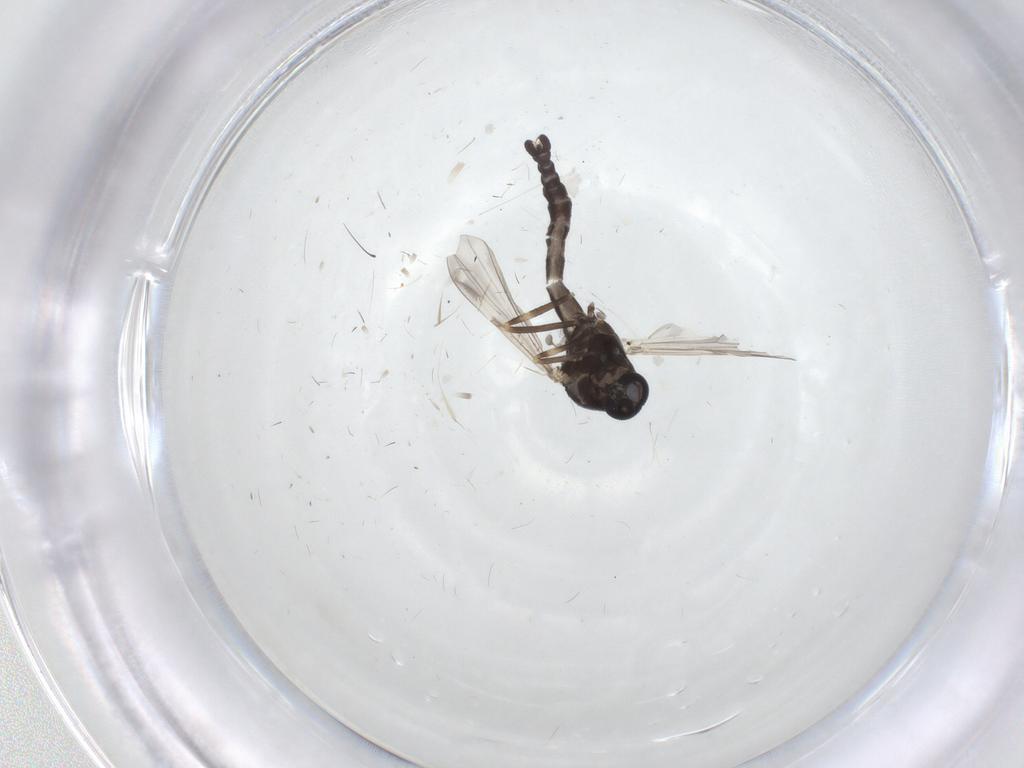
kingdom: Animalia
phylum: Arthropoda
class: Insecta
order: Diptera
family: Ceratopogonidae
